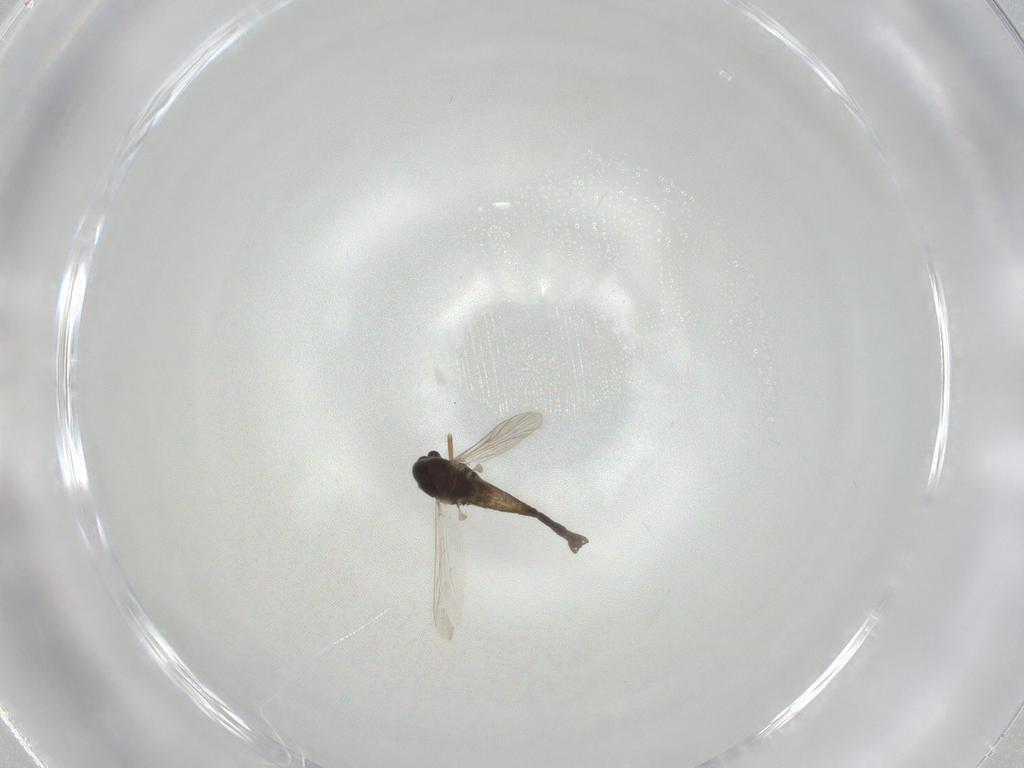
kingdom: Animalia
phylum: Arthropoda
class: Insecta
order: Diptera
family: Chironomidae
